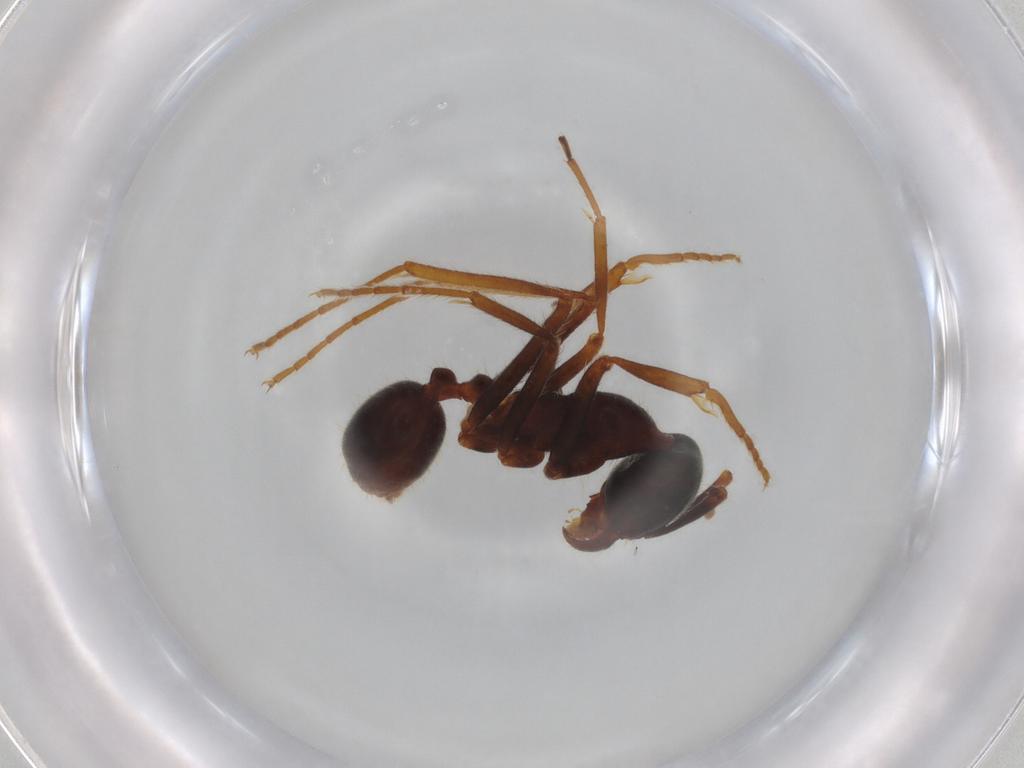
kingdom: Animalia
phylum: Arthropoda
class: Insecta
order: Hymenoptera
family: Formicidae
